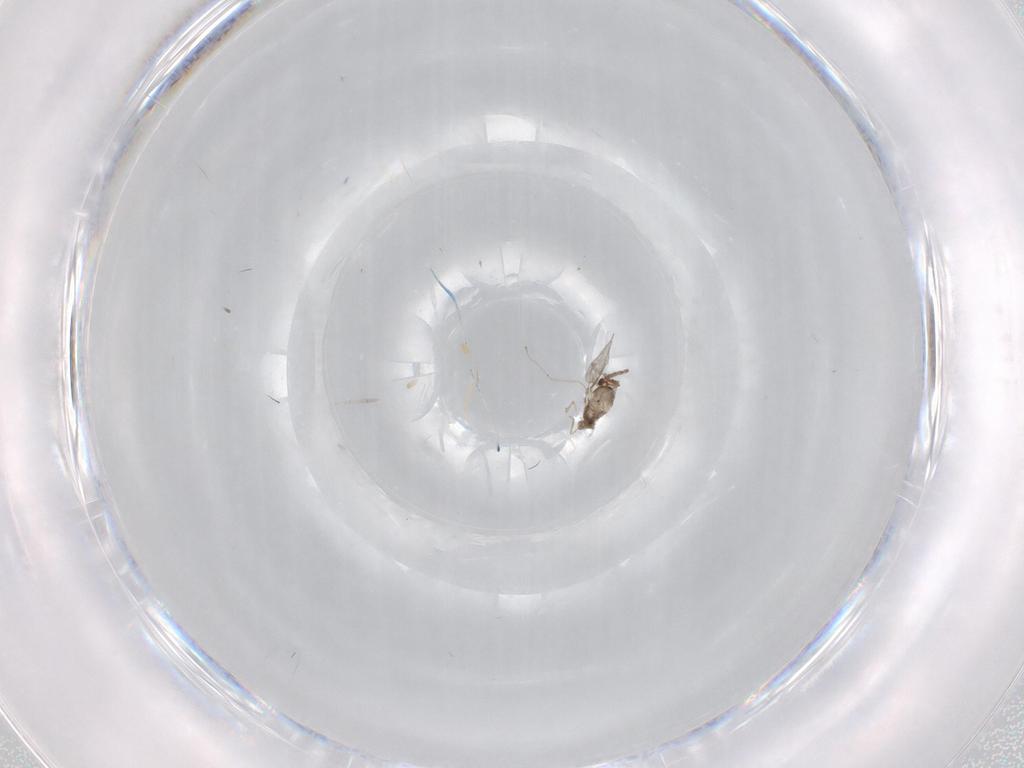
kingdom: Animalia
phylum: Arthropoda
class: Insecta
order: Diptera
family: Cecidomyiidae
